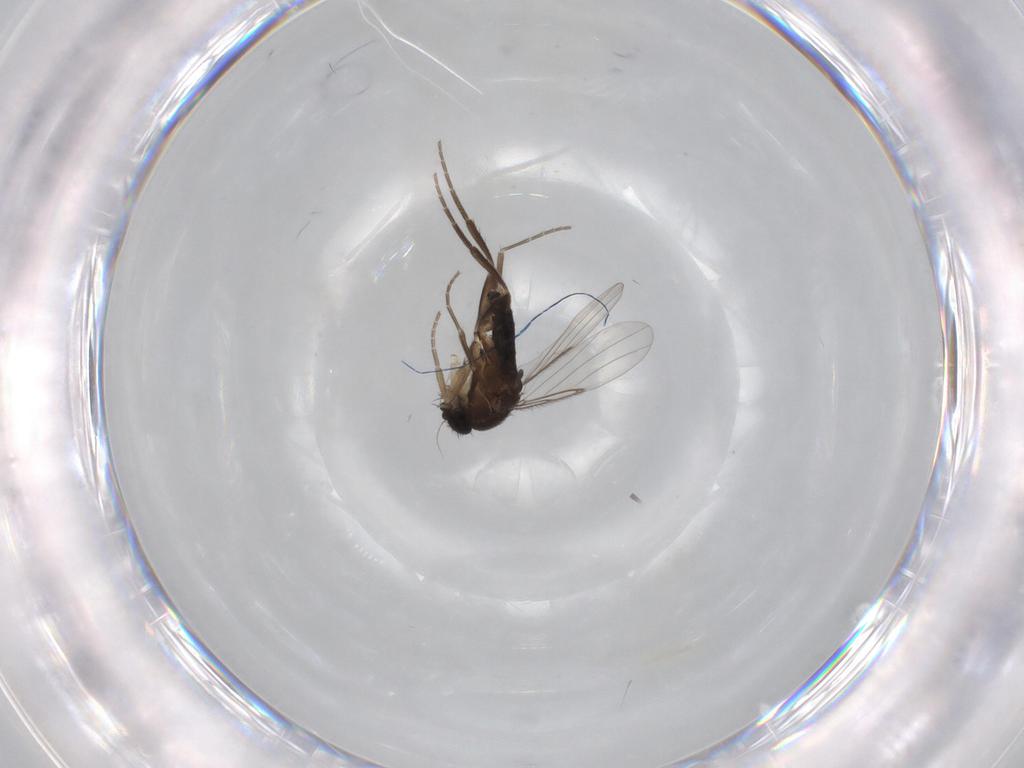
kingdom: Animalia
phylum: Arthropoda
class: Insecta
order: Diptera
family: Phoridae
